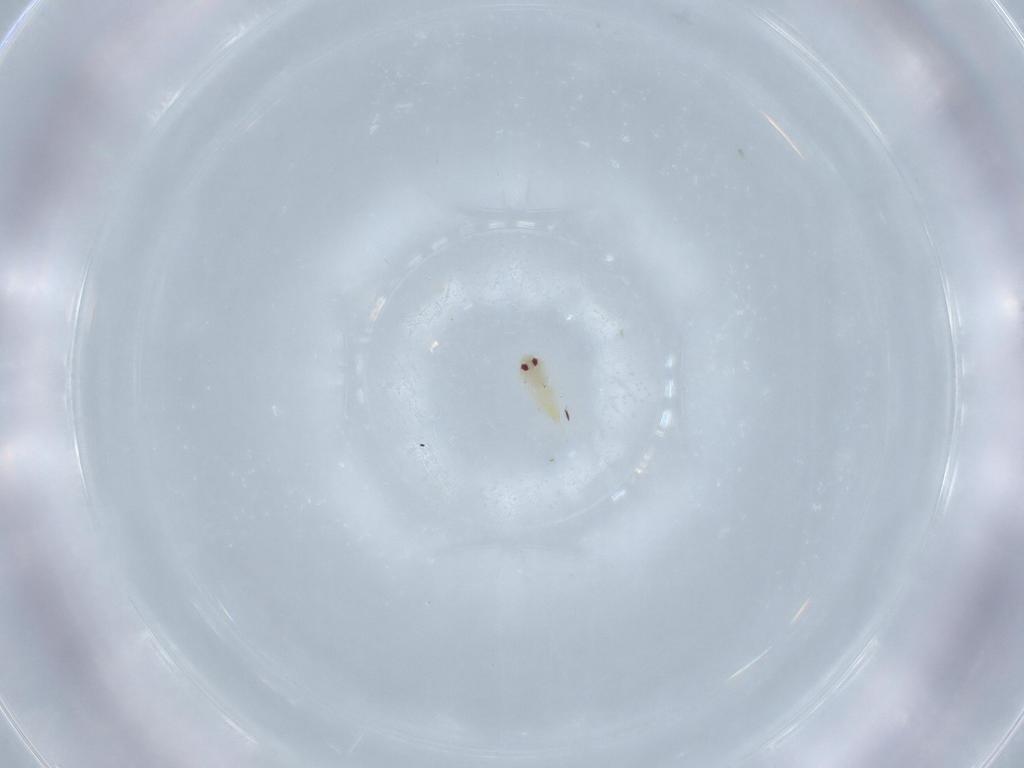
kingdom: Animalia
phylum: Arthropoda
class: Insecta
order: Hemiptera
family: Aleyrodidae
